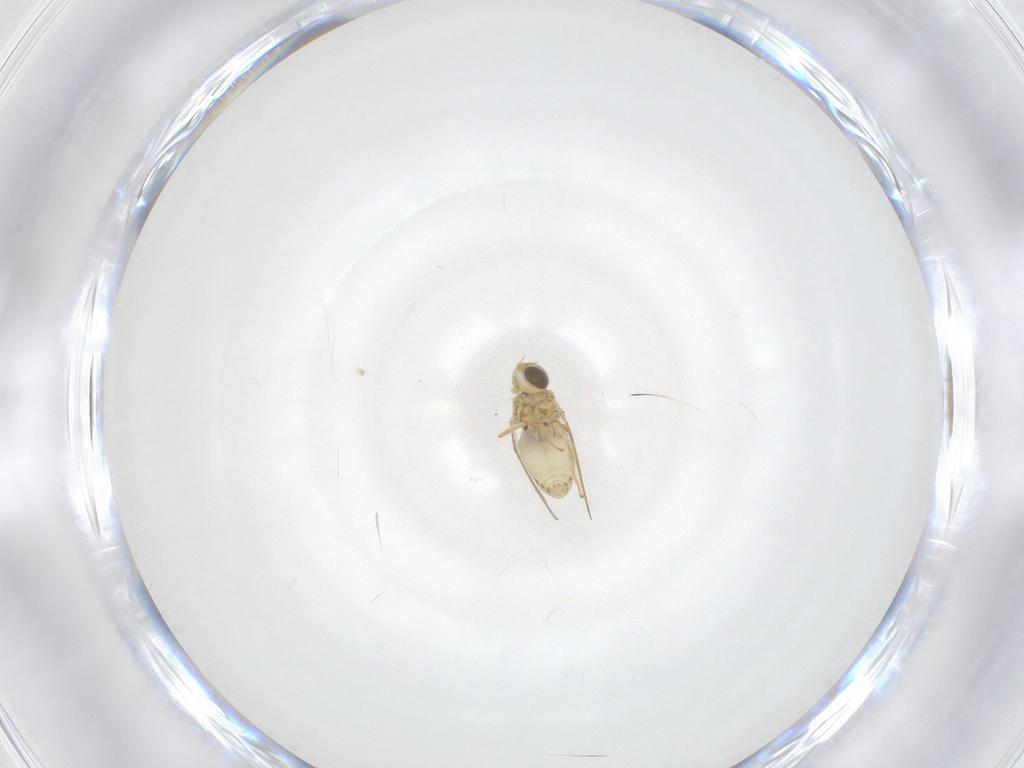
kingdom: Animalia
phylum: Arthropoda
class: Insecta
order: Diptera
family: Chyromyidae
